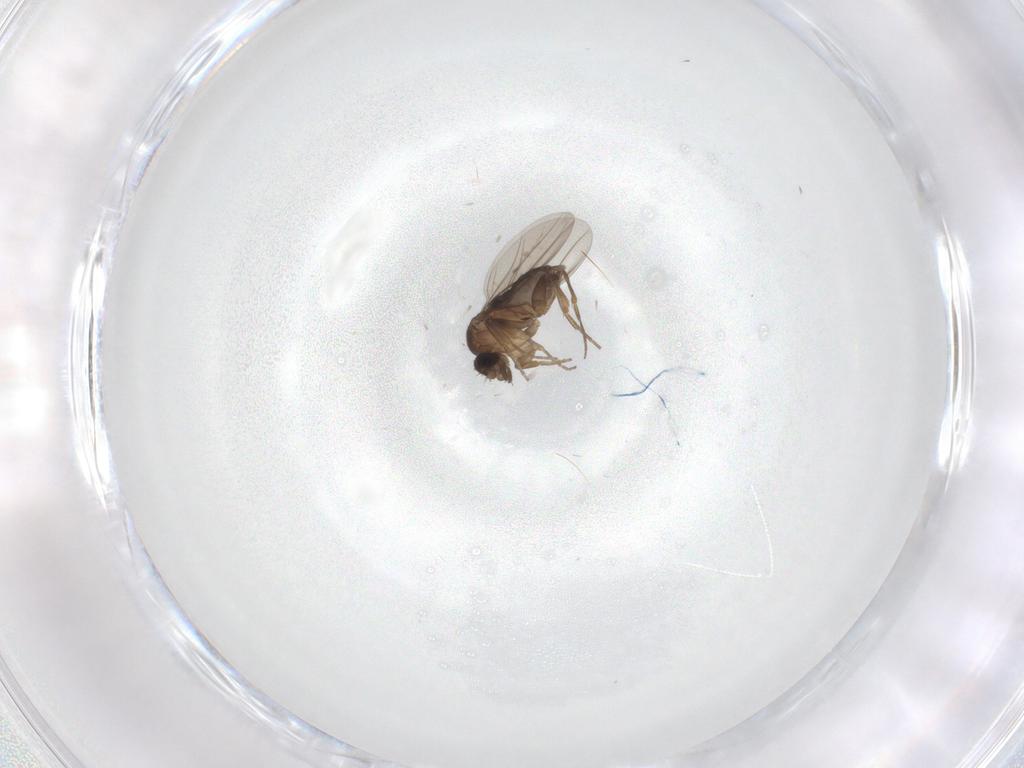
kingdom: Animalia
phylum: Arthropoda
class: Insecta
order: Diptera
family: Phoridae
